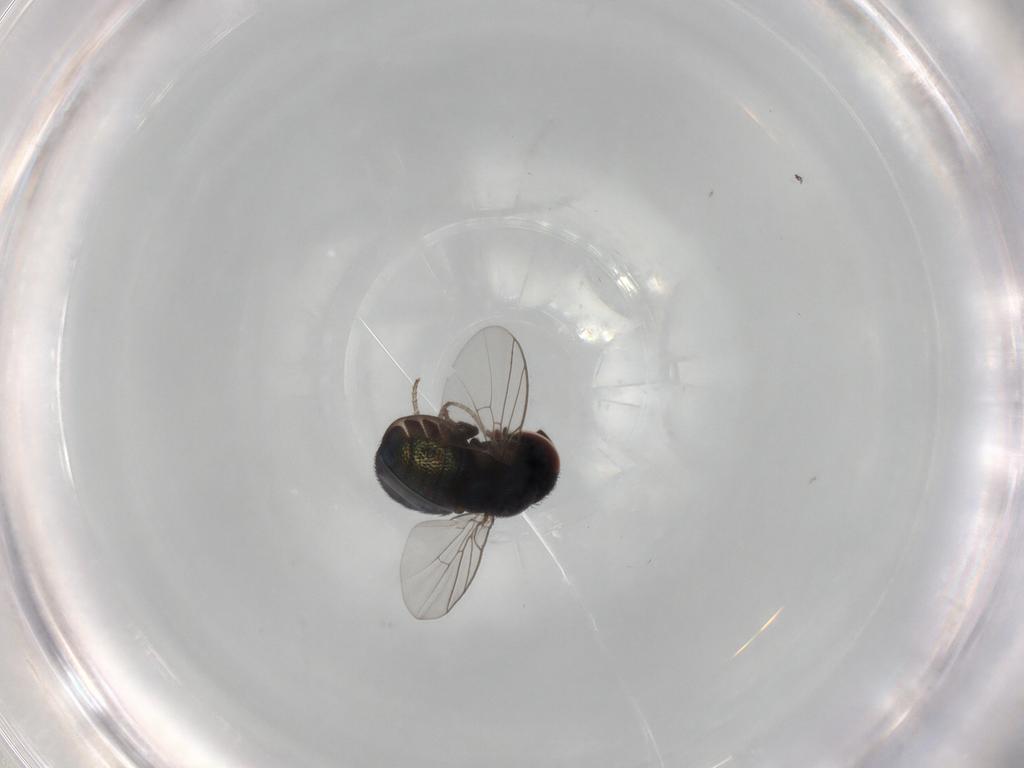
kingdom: Animalia
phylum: Arthropoda
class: Insecta
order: Diptera
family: Cryptochetidae
